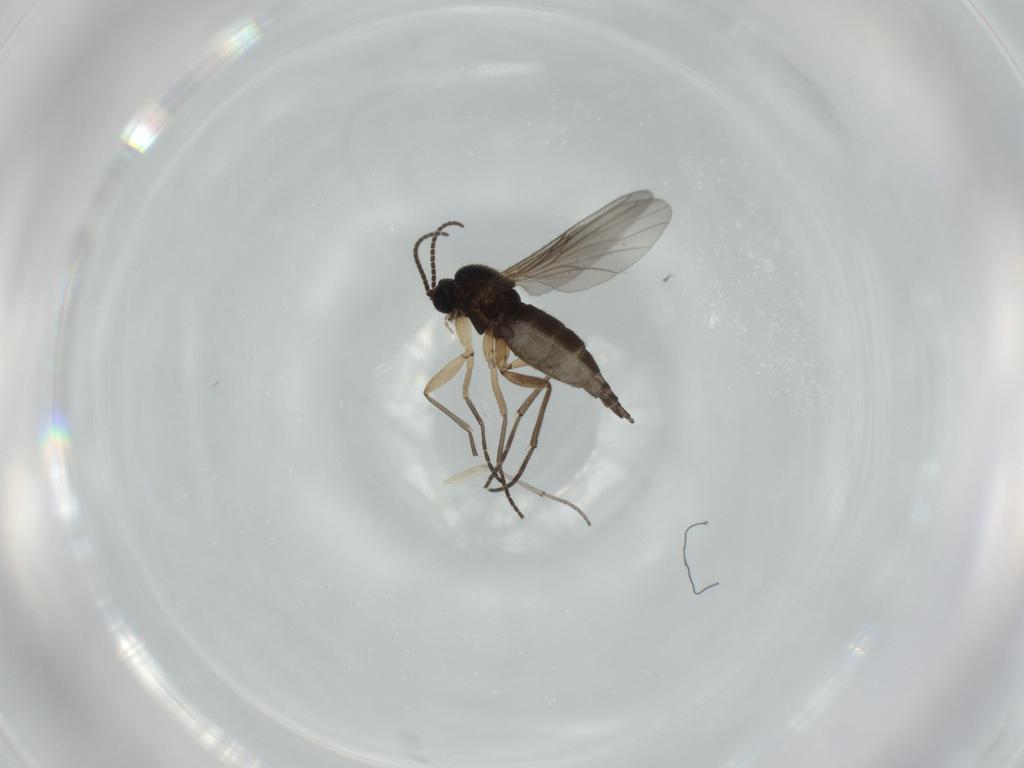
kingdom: Animalia
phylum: Arthropoda
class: Insecta
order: Diptera
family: Sciaridae
